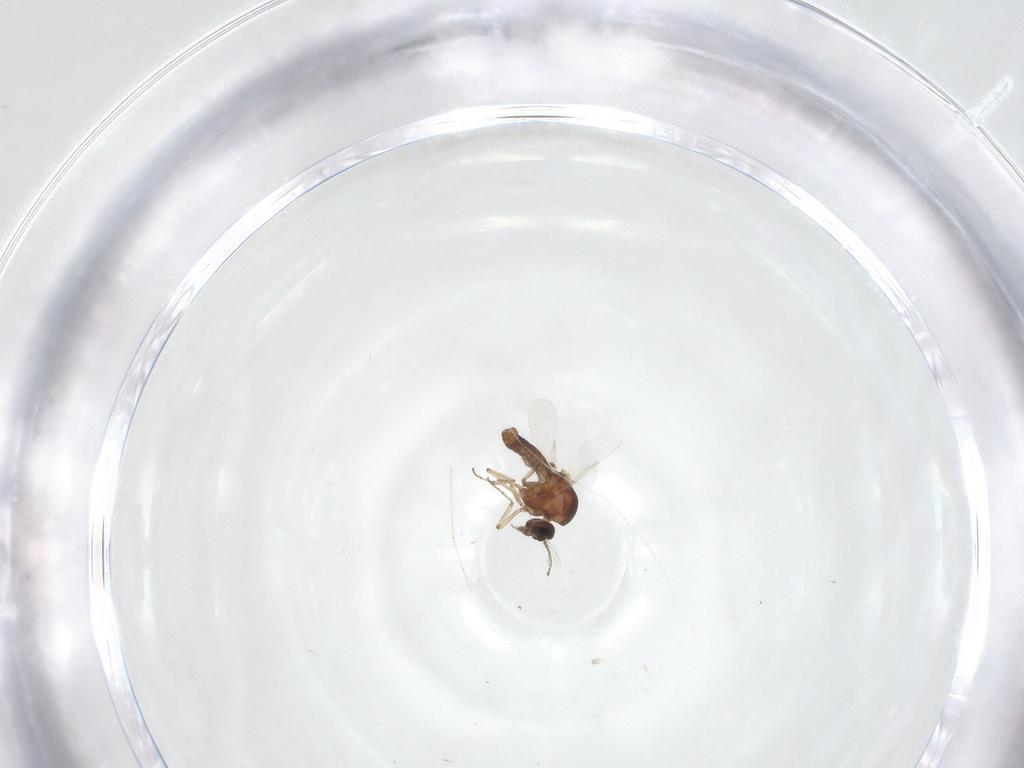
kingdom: Animalia
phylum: Arthropoda
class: Insecta
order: Diptera
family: Ceratopogonidae
